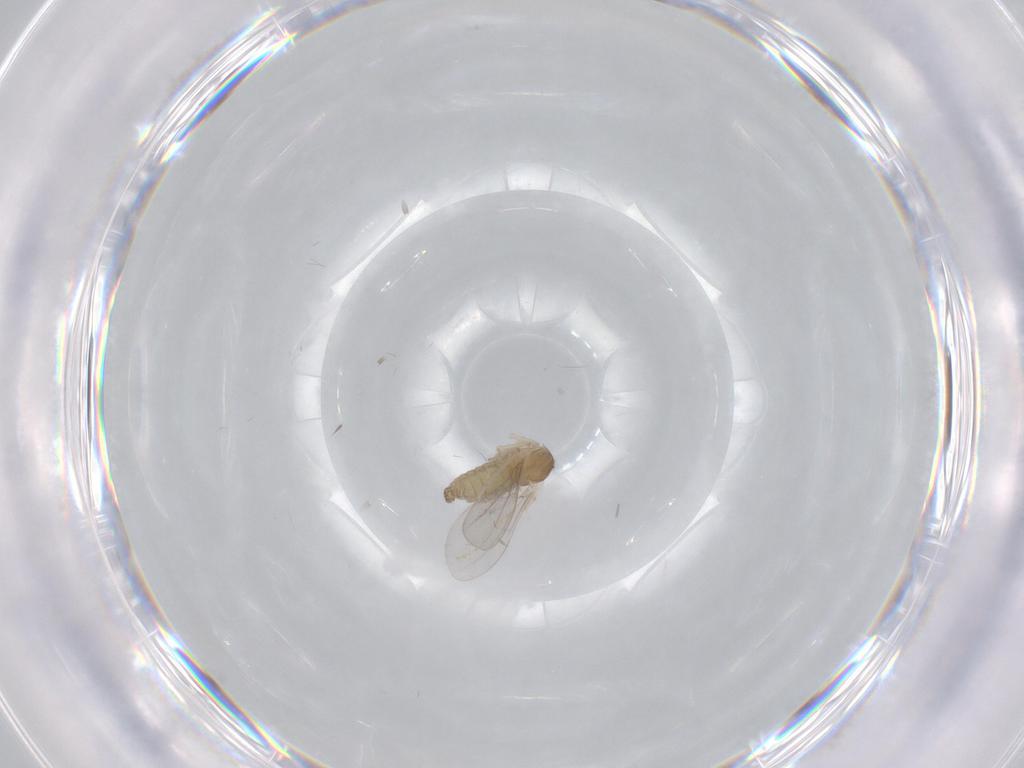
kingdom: Animalia
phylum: Arthropoda
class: Insecta
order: Diptera
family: Cecidomyiidae
